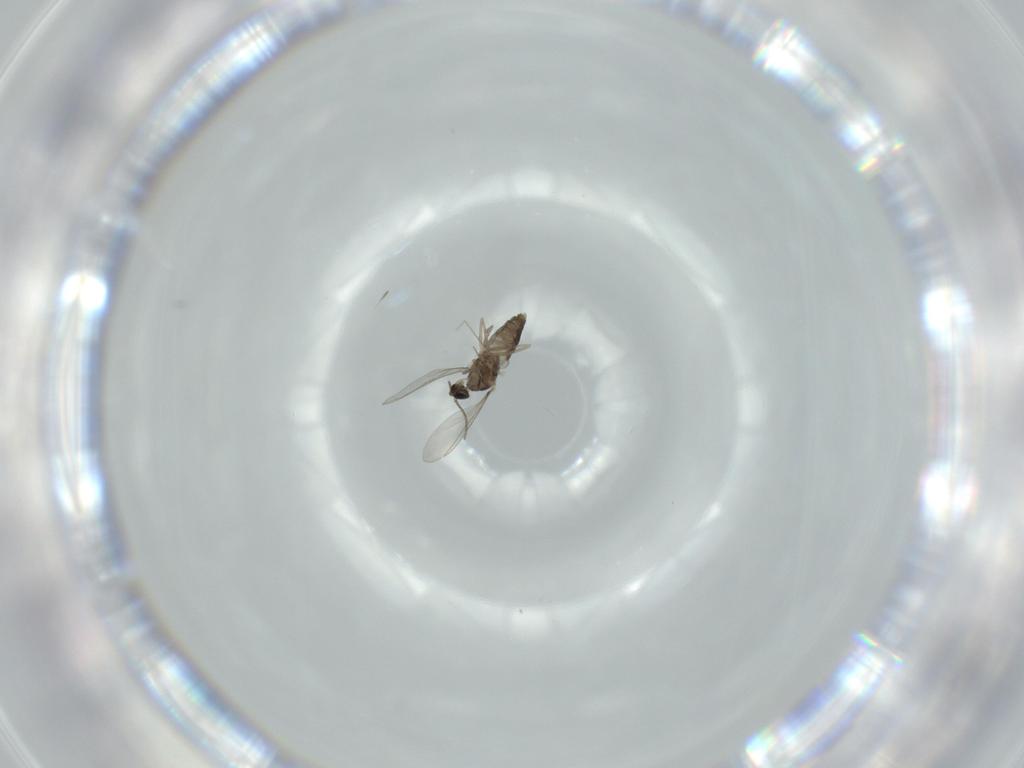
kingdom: Animalia
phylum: Arthropoda
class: Insecta
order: Diptera
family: Cecidomyiidae
